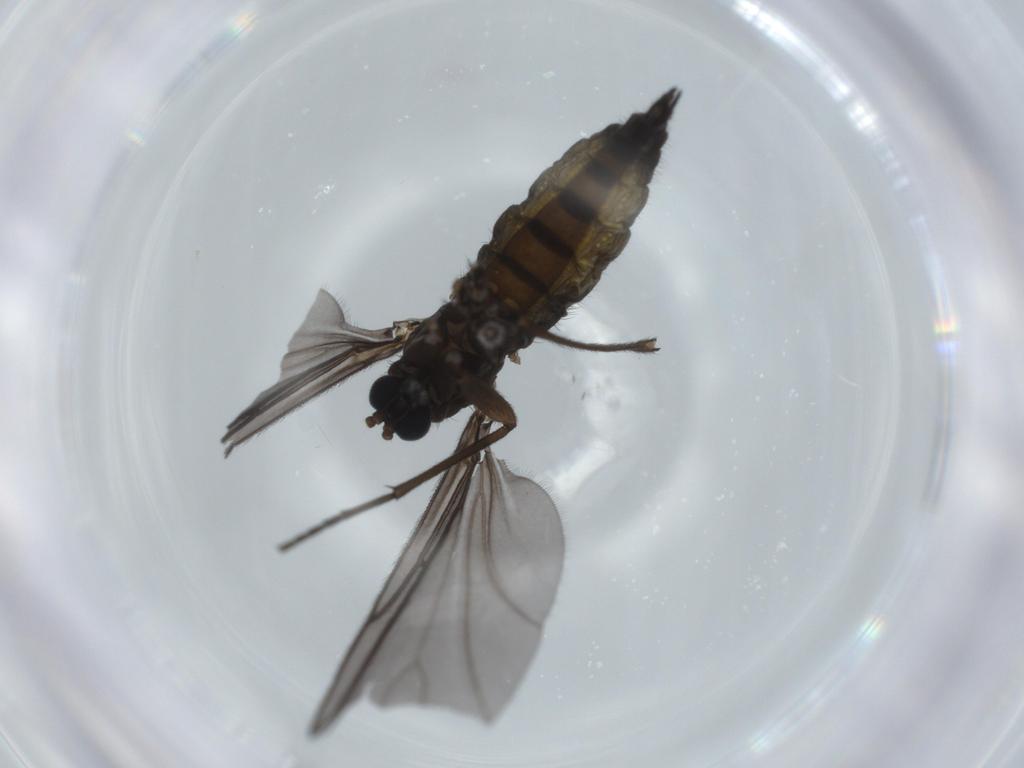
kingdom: Animalia
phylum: Arthropoda
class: Insecta
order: Diptera
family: Sciaridae
